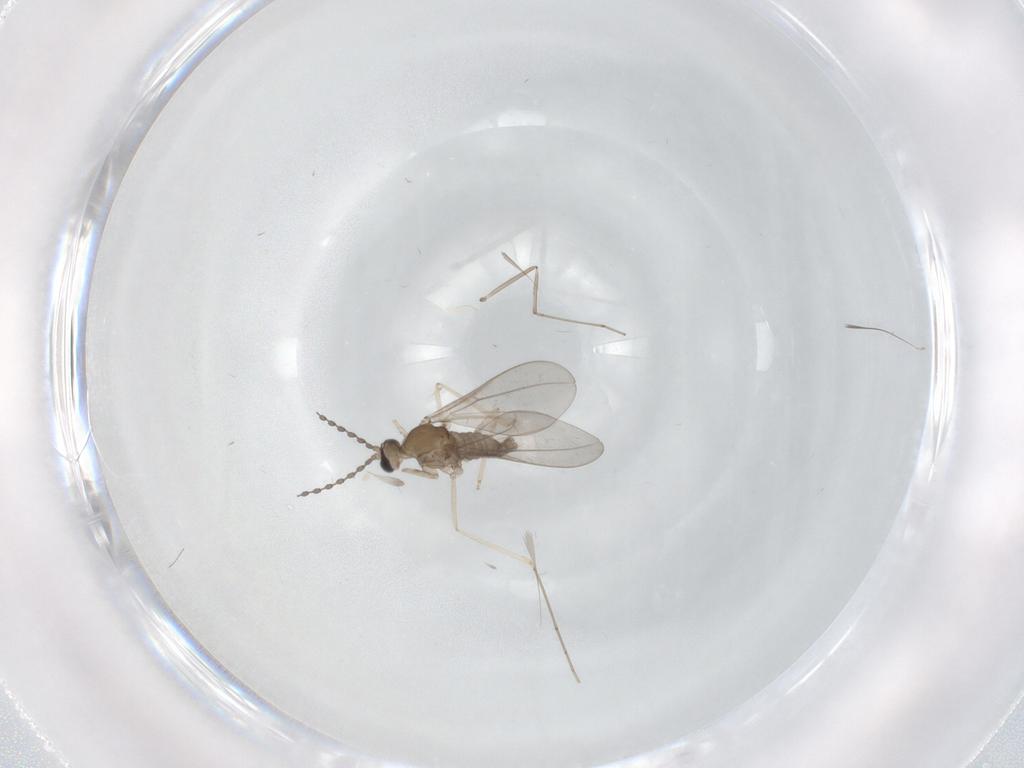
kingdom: Animalia
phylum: Arthropoda
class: Insecta
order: Diptera
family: Cecidomyiidae
